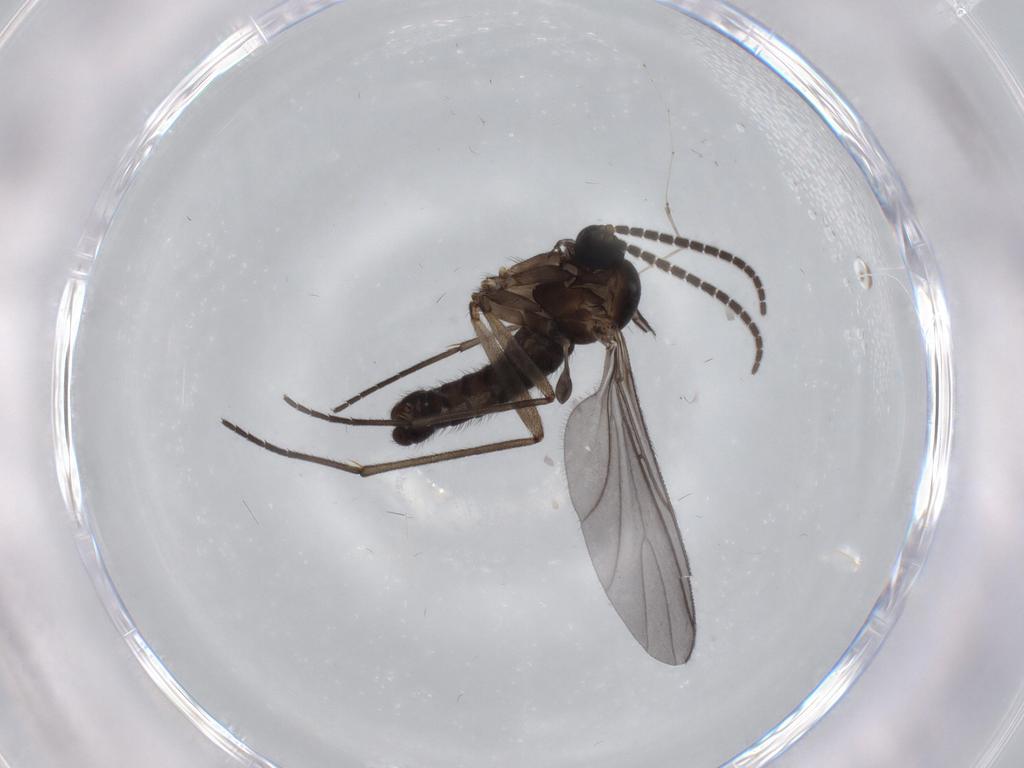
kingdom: Animalia
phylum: Arthropoda
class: Insecta
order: Diptera
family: Sciaridae
